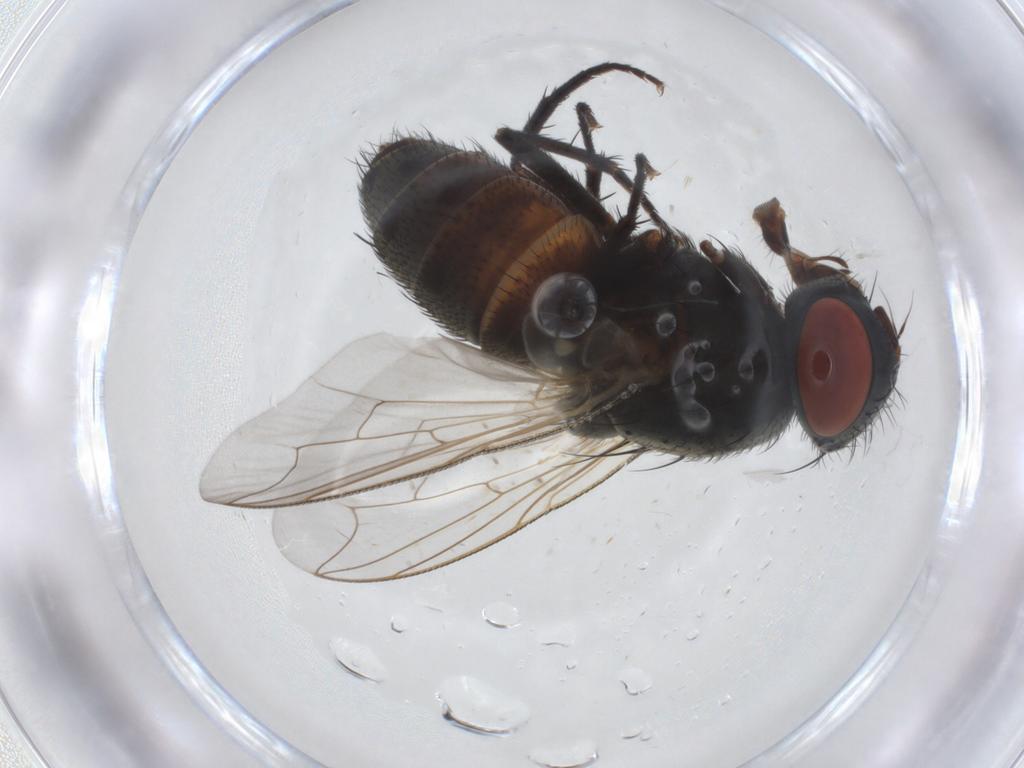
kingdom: Animalia
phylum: Arthropoda
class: Insecta
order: Diptera
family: Sarcophagidae
